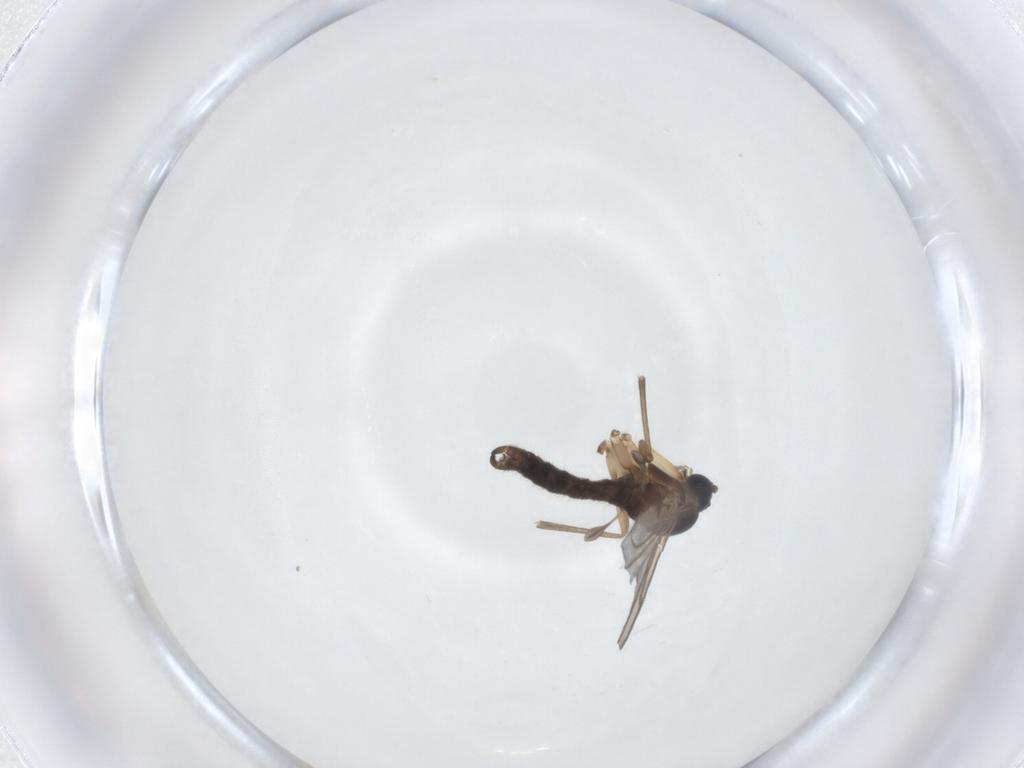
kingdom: Animalia
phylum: Arthropoda
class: Insecta
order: Diptera
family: Sciaridae
